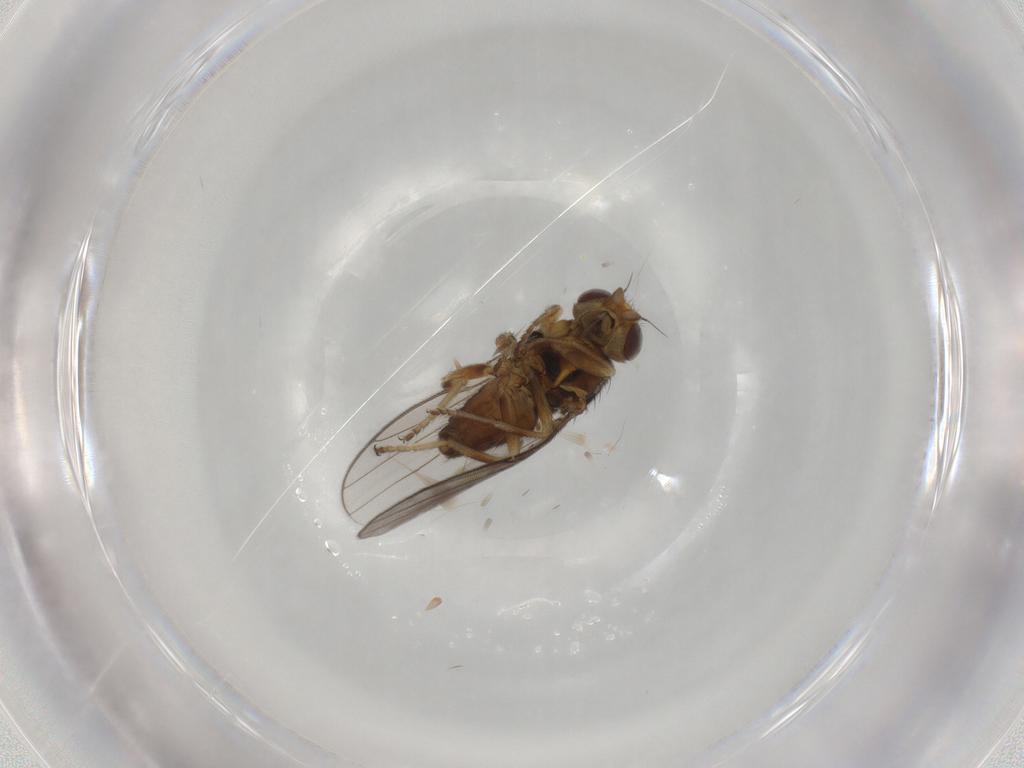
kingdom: Animalia
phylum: Arthropoda
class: Insecta
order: Diptera
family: Chloropidae
